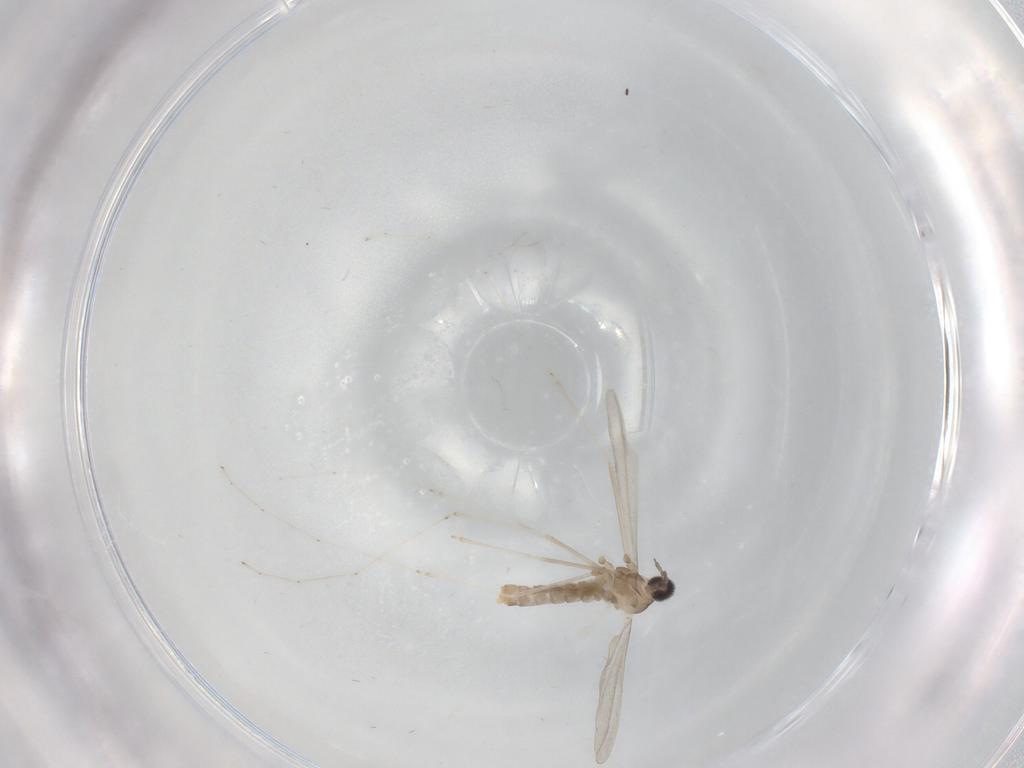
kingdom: Animalia
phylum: Arthropoda
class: Insecta
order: Diptera
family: Cecidomyiidae
